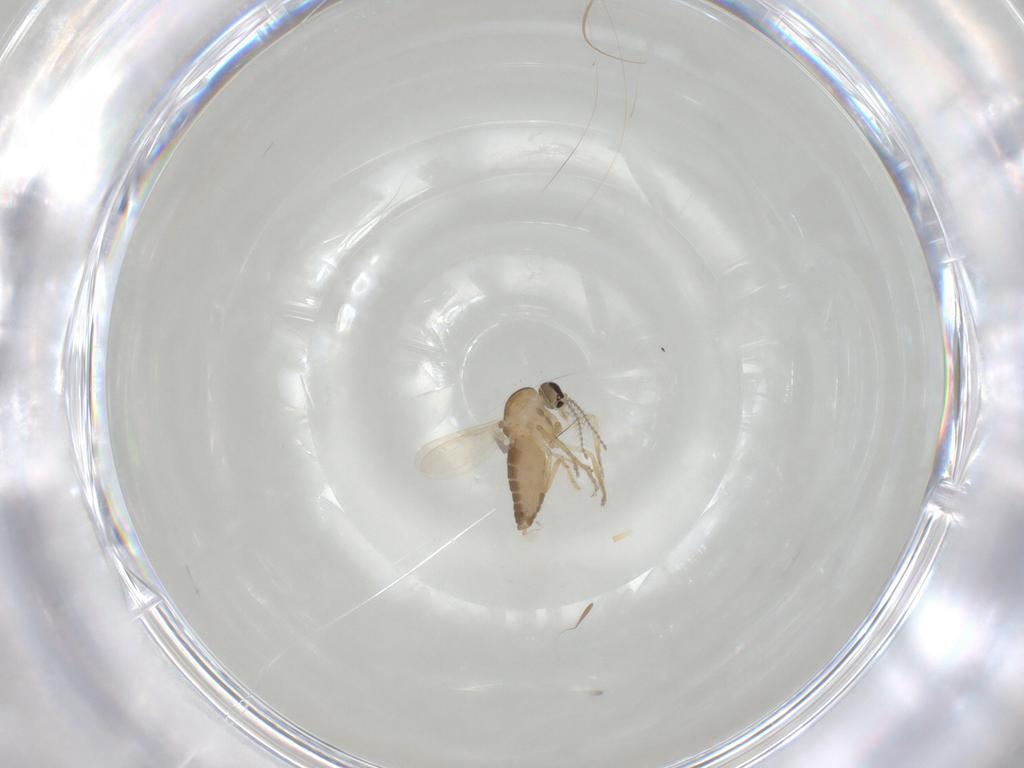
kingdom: Animalia
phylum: Arthropoda
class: Insecta
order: Diptera
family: Ceratopogonidae
